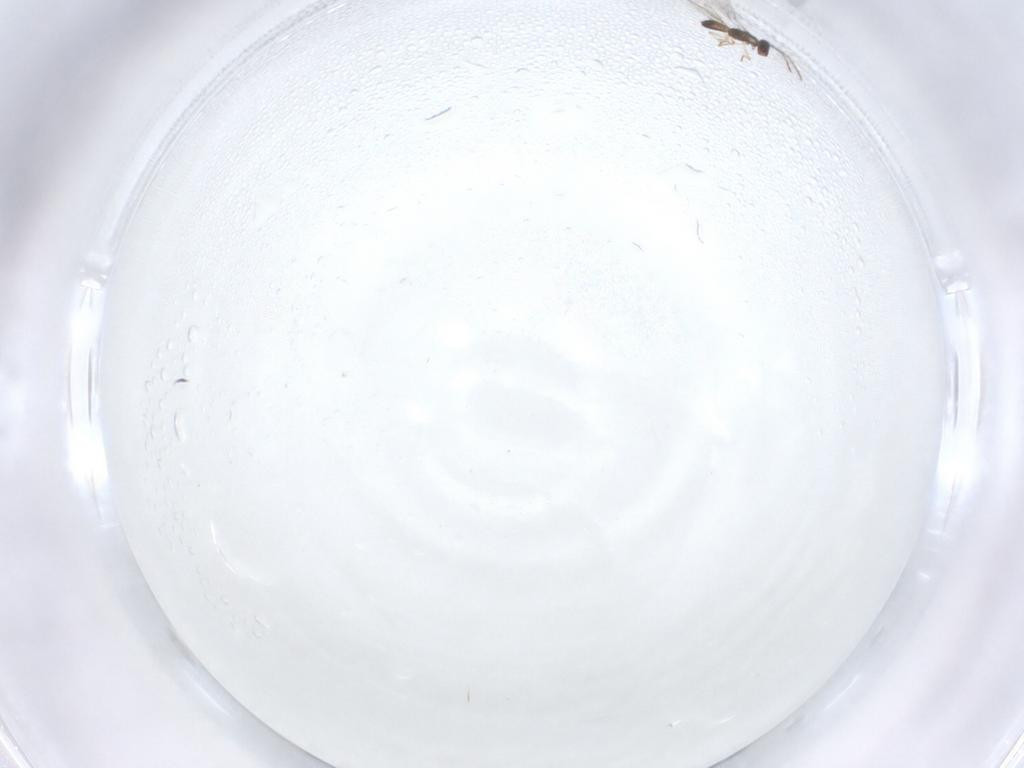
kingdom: Animalia
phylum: Arthropoda
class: Insecta
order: Hymenoptera
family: Pteromalidae
